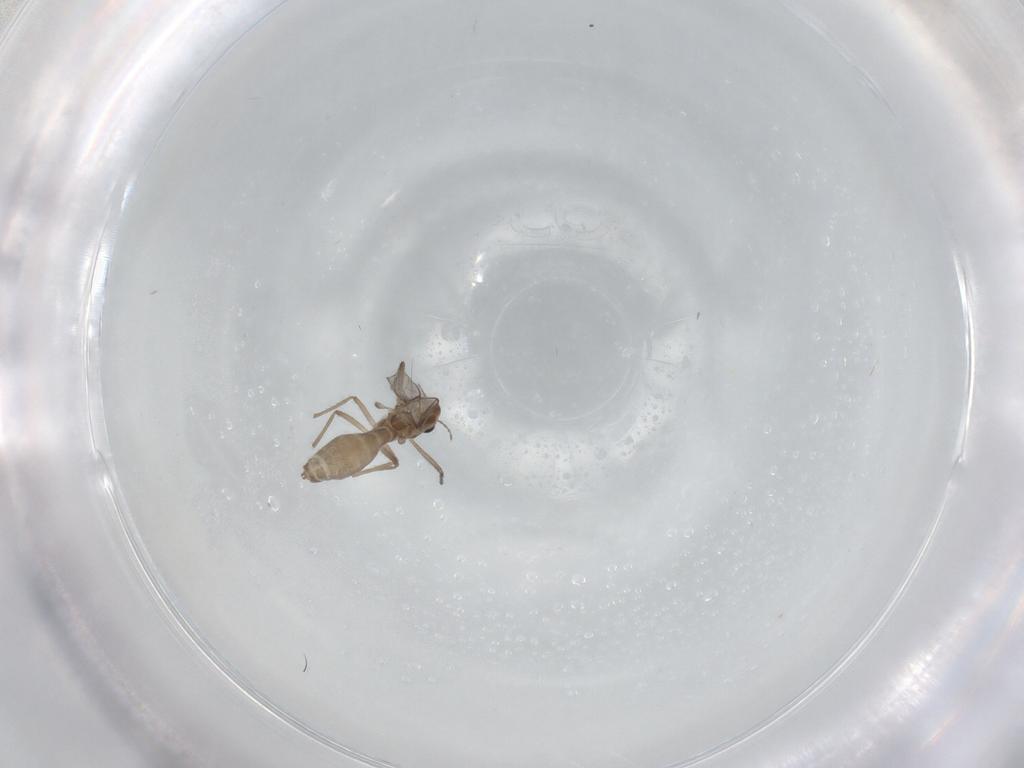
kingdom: Animalia
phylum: Arthropoda
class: Insecta
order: Diptera
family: Chironomidae
